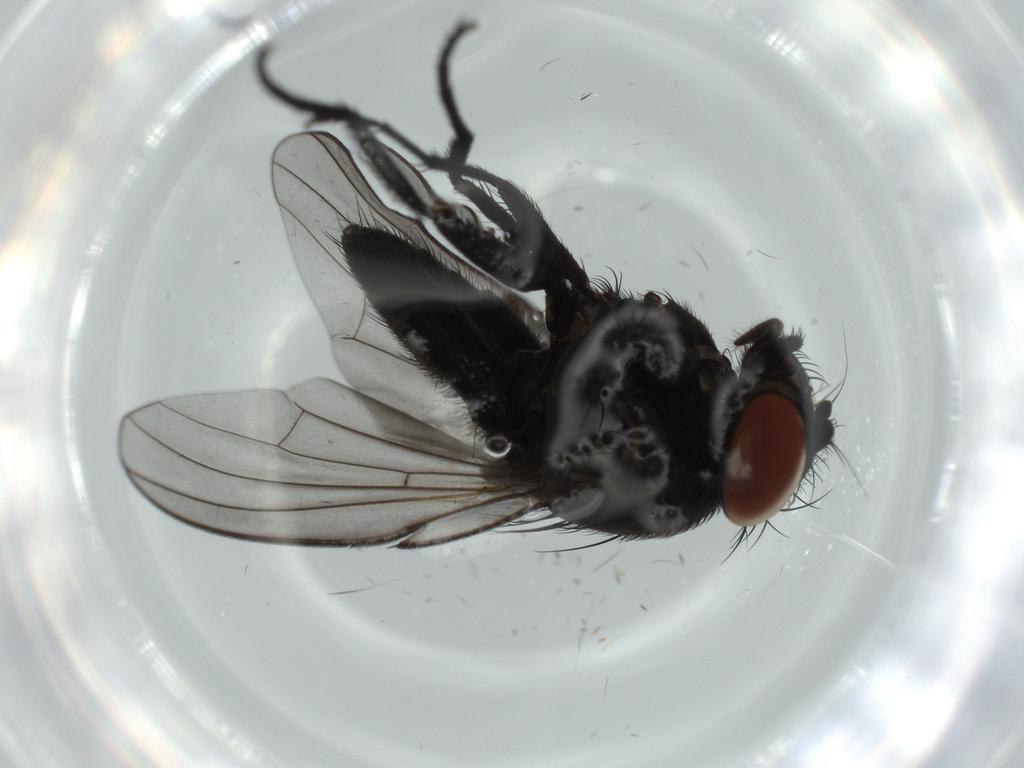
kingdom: Animalia
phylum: Arthropoda
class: Insecta
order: Diptera
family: Milichiidae
